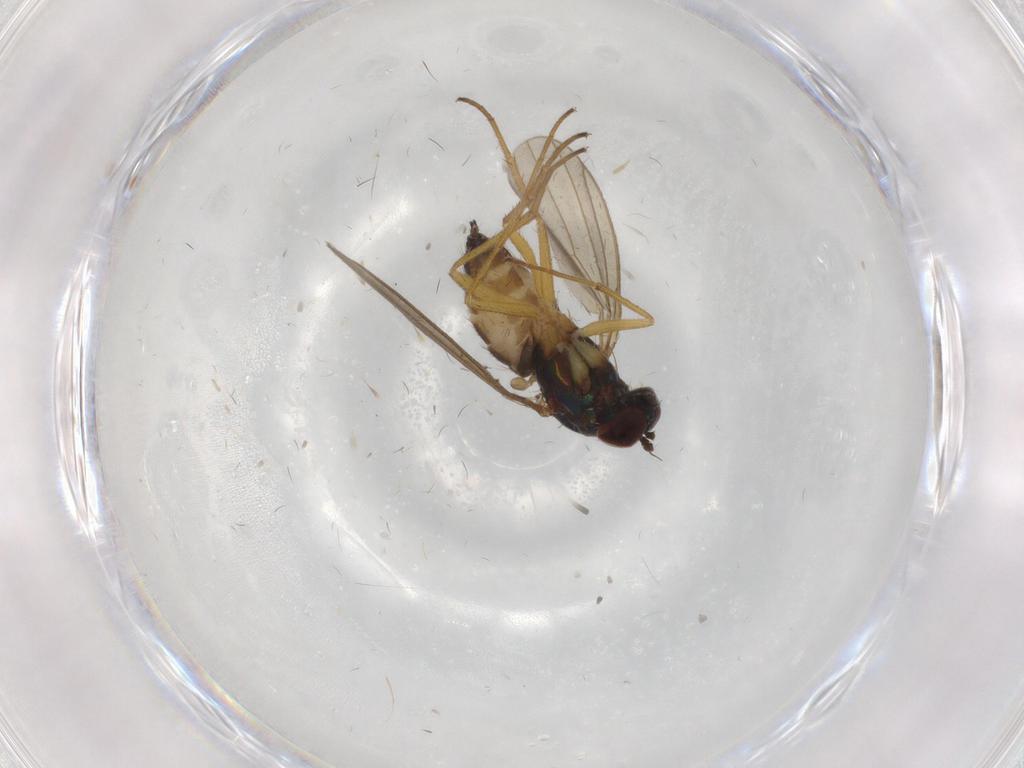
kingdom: Animalia
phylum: Arthropoda
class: Insecta
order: Diptera
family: Dolichopodidae
